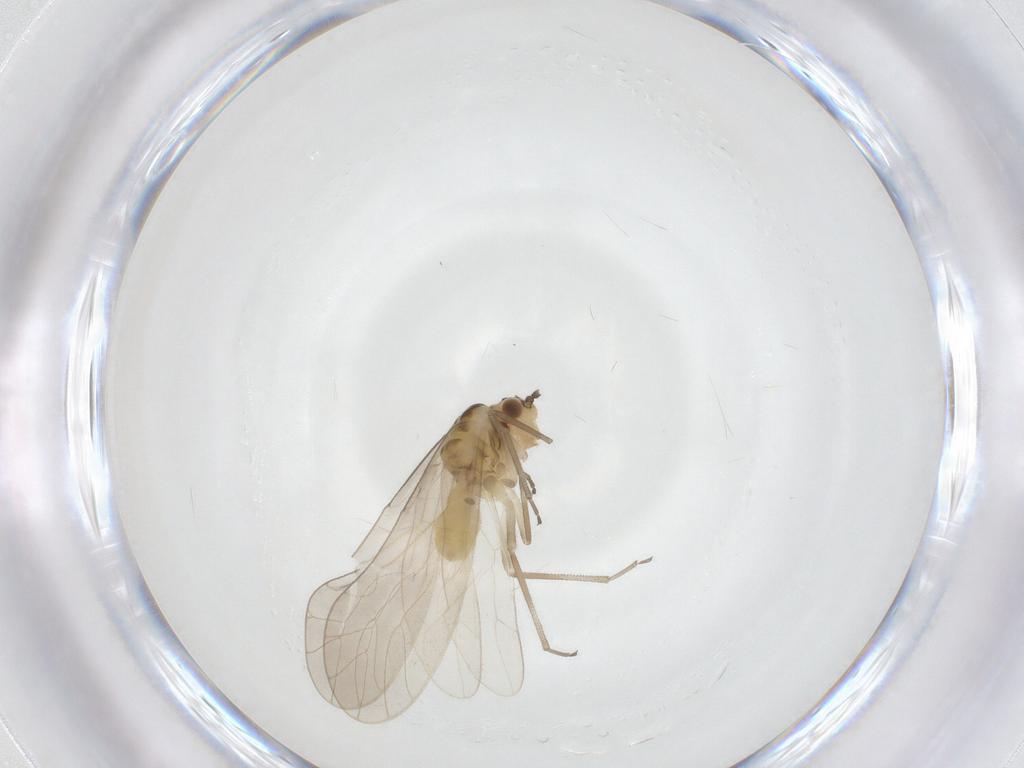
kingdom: Animalia
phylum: Arthropoda
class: Insecta
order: Psocodea
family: Caeciliusidae
